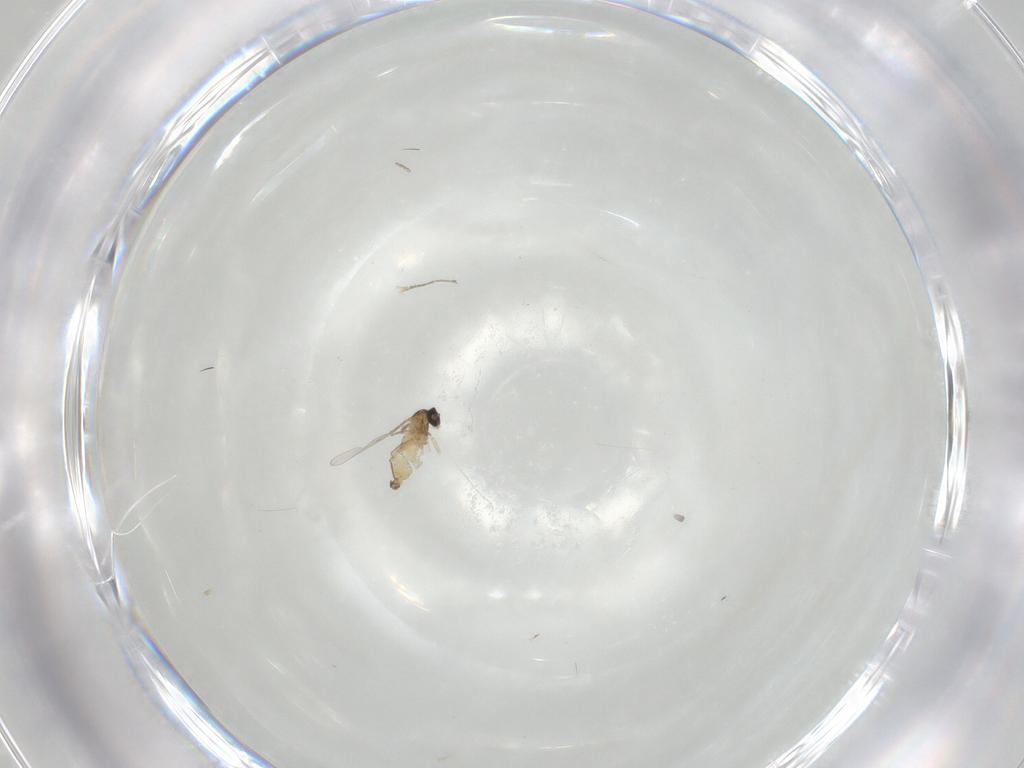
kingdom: Animalia
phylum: Arthropoda
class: Insecta
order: Diptera
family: Cecidomyiidae
